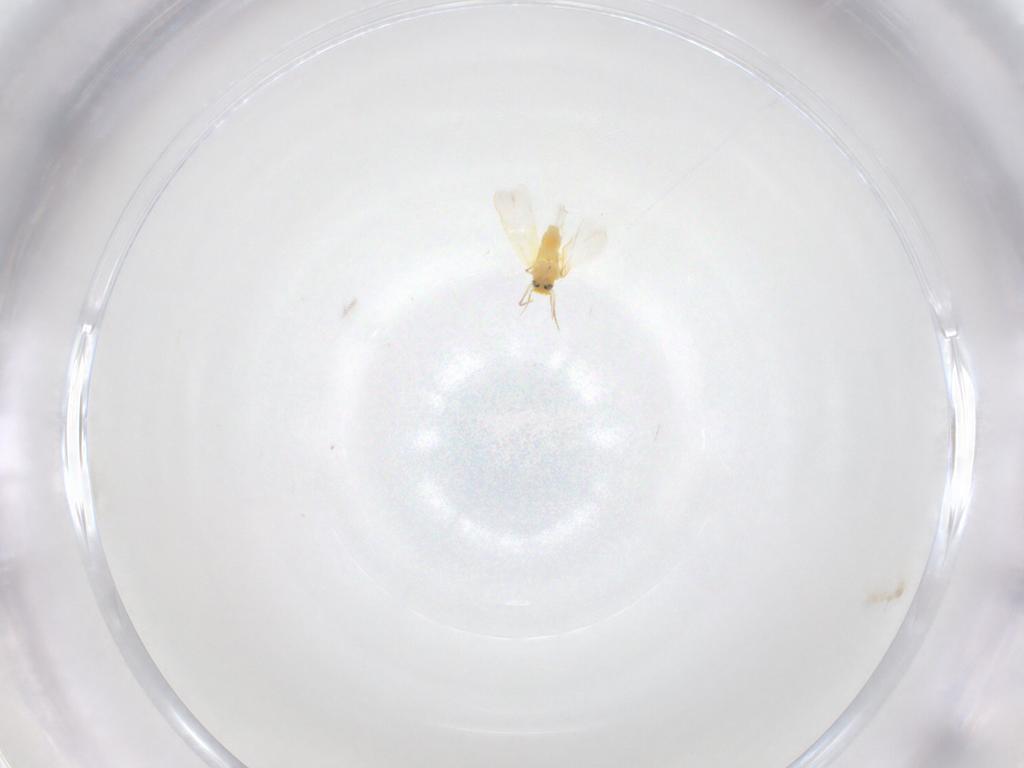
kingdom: Animalia
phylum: Arthropoda
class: Insecta
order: Hemiptera
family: Aleyrodidae
